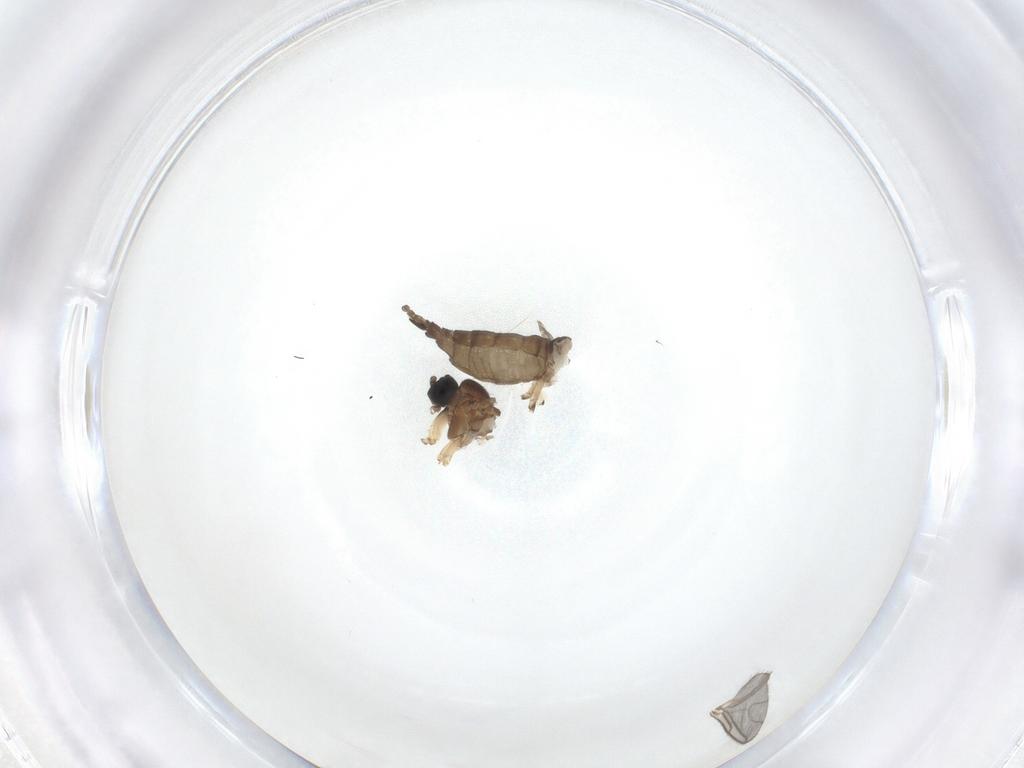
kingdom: Animalia
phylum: Arthropoda
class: Insecta
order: Diptera
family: Sciaridae
